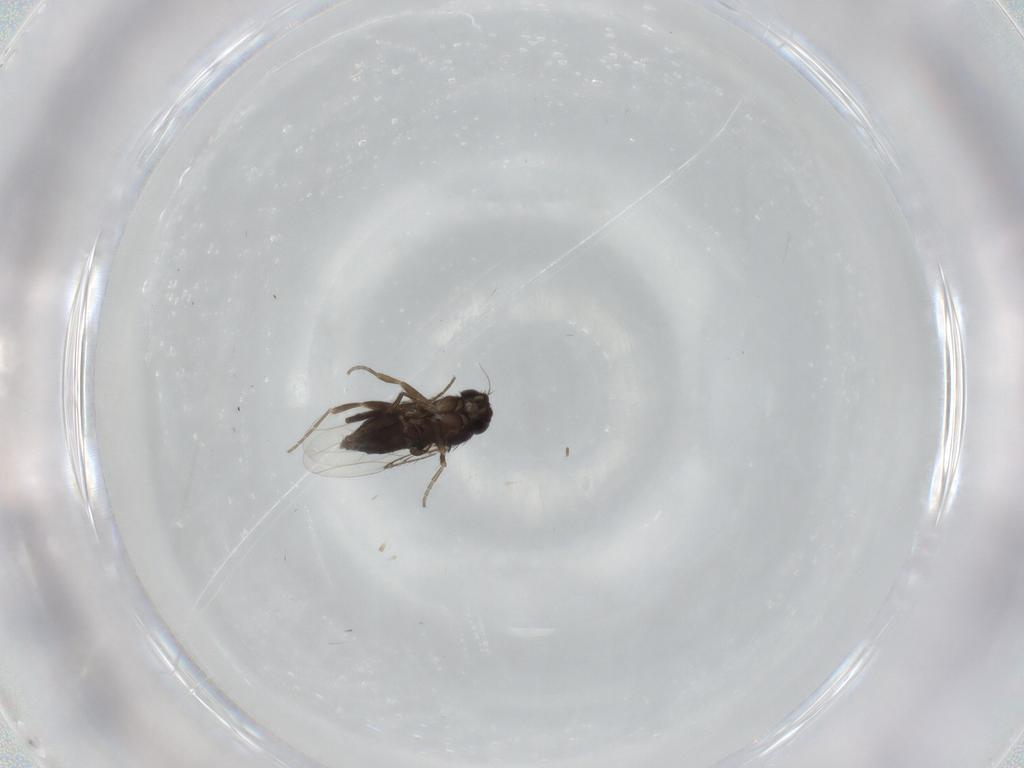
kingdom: Animalia
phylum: Arthropoda
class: Insecta
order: Diptera
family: Phoridae
